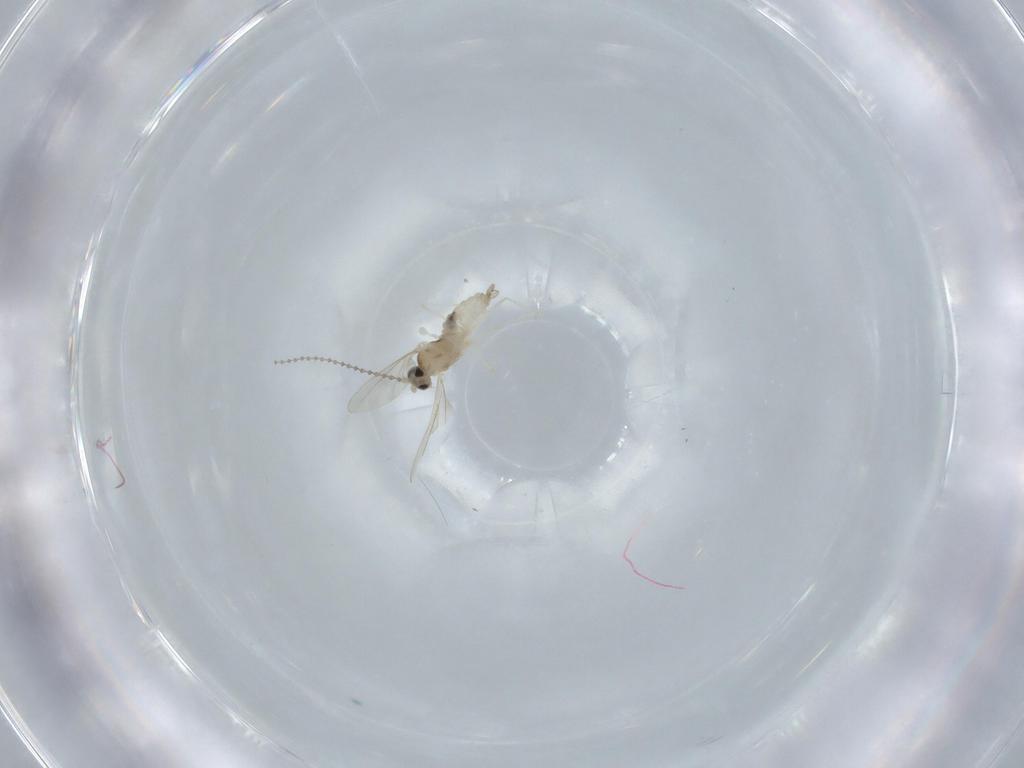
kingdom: Animalia
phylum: Arthropoda
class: Insecta
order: Diptera
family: Cecidomyiidae
